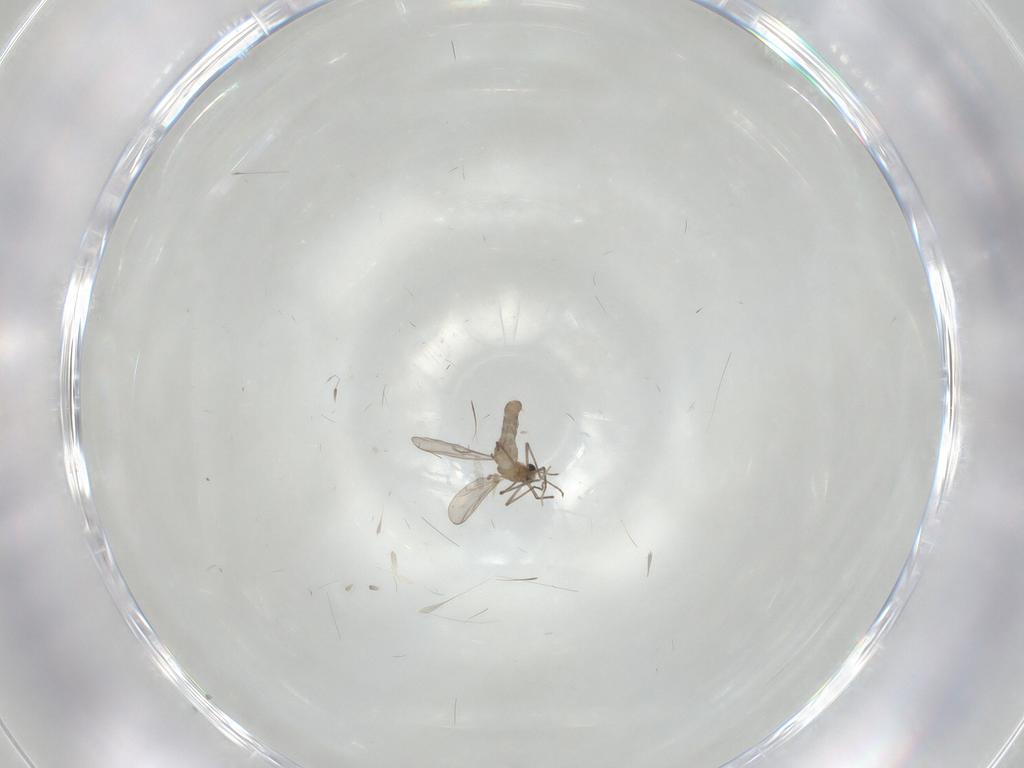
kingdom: Animalia
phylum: Arthropoda
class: Insecta
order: Diptera
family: Chironomidae
